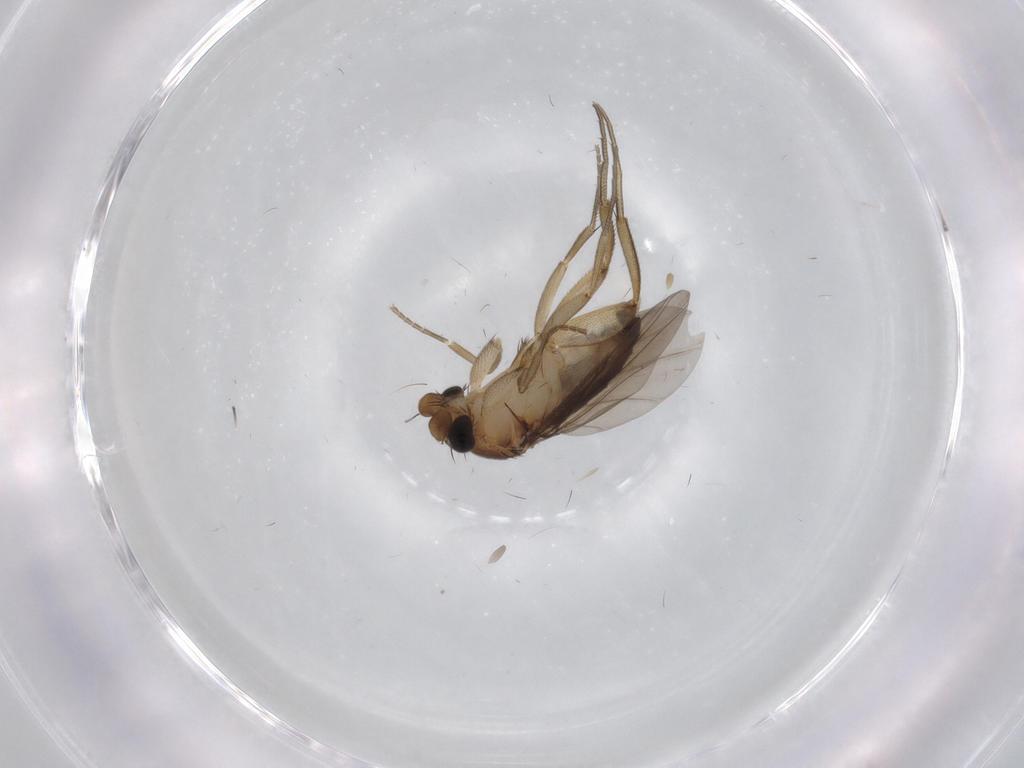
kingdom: Animalia
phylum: Arthropoda
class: Insecta
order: Diptera
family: Phoridae
